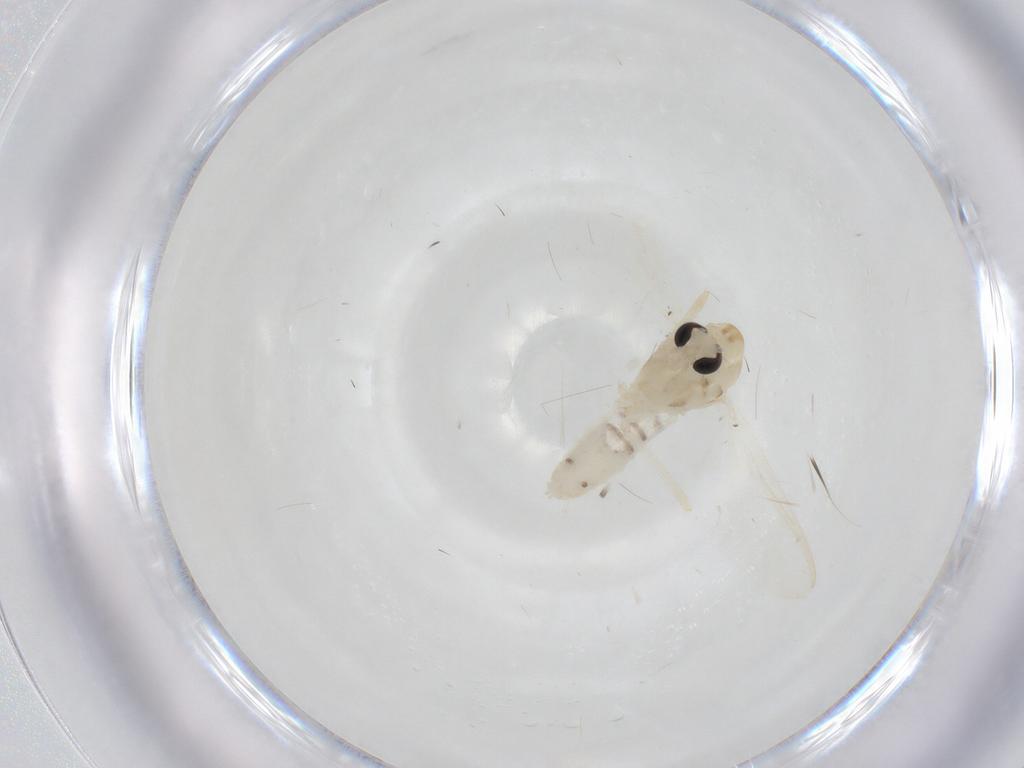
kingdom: Animalia
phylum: Arthropoda
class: Insecta
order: Diptera
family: Chironomidae
